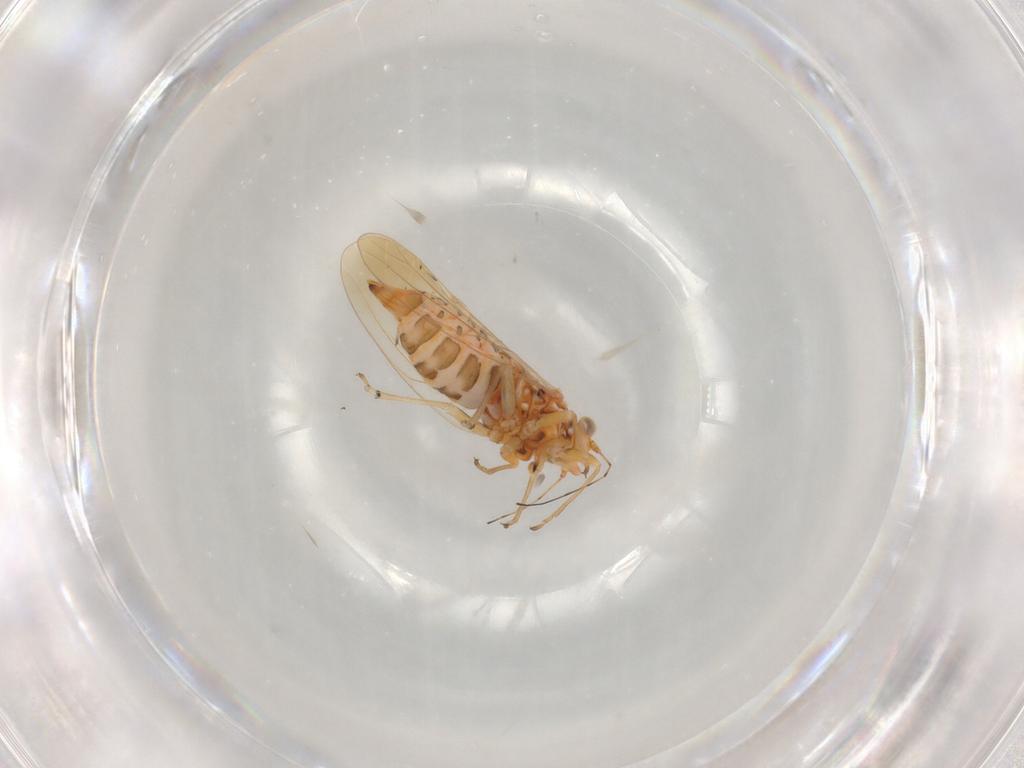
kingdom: Animalia
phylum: Arthropoda
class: Insecta
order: Hemiptera
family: Psyllidae
